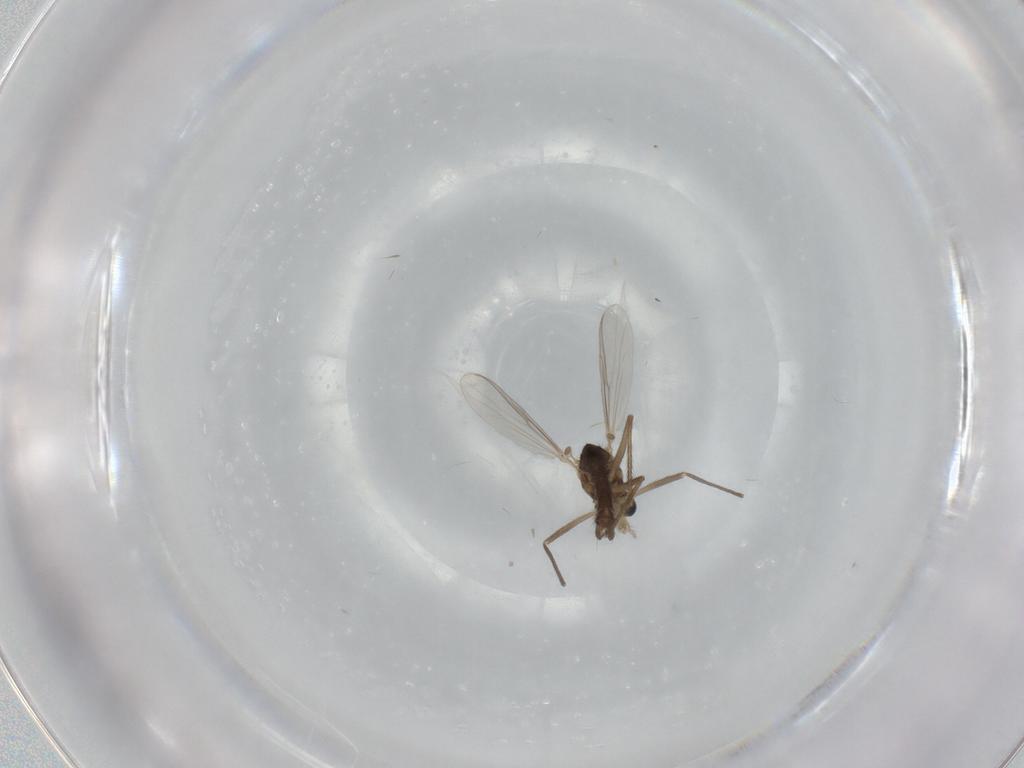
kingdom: Animalia
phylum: Arthropoda
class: Insecta
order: Diptera
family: Chironomidae
